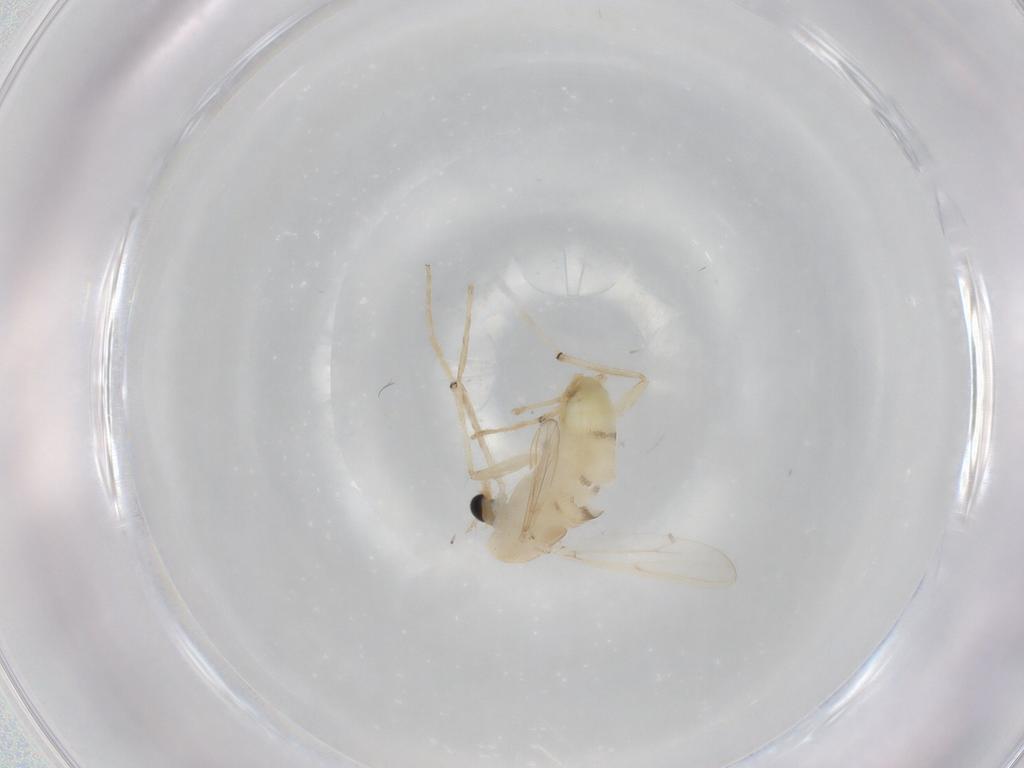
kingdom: Animalia
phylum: Arthropoda
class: Insecta
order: Diptera
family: Chironomidae
